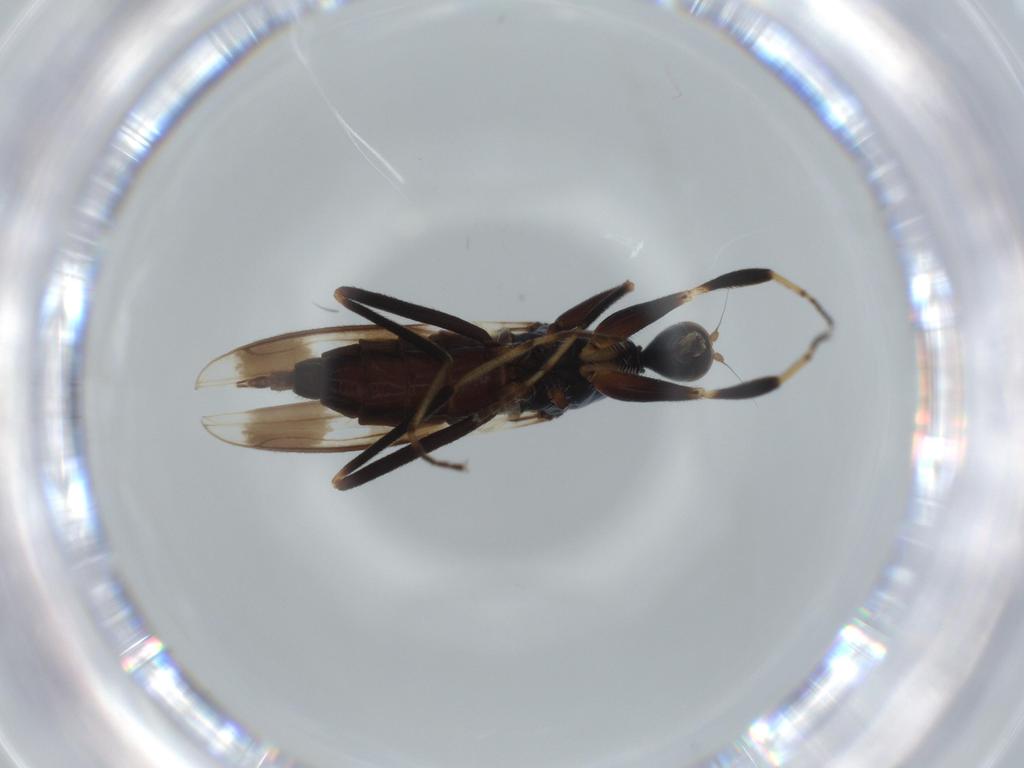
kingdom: Animalia
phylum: Arthropoda
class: Insecta
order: Diptera
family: Hybotidae
